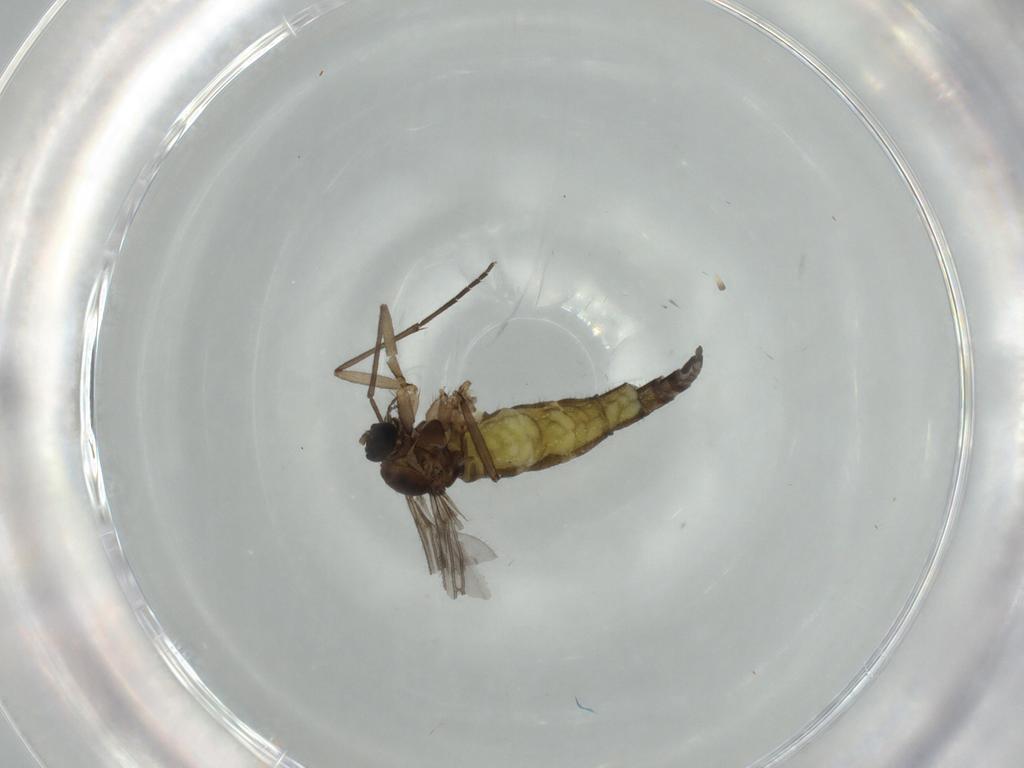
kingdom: Animalia
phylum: Arthropoda
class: Insecta
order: Diptera
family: Sciaridae
